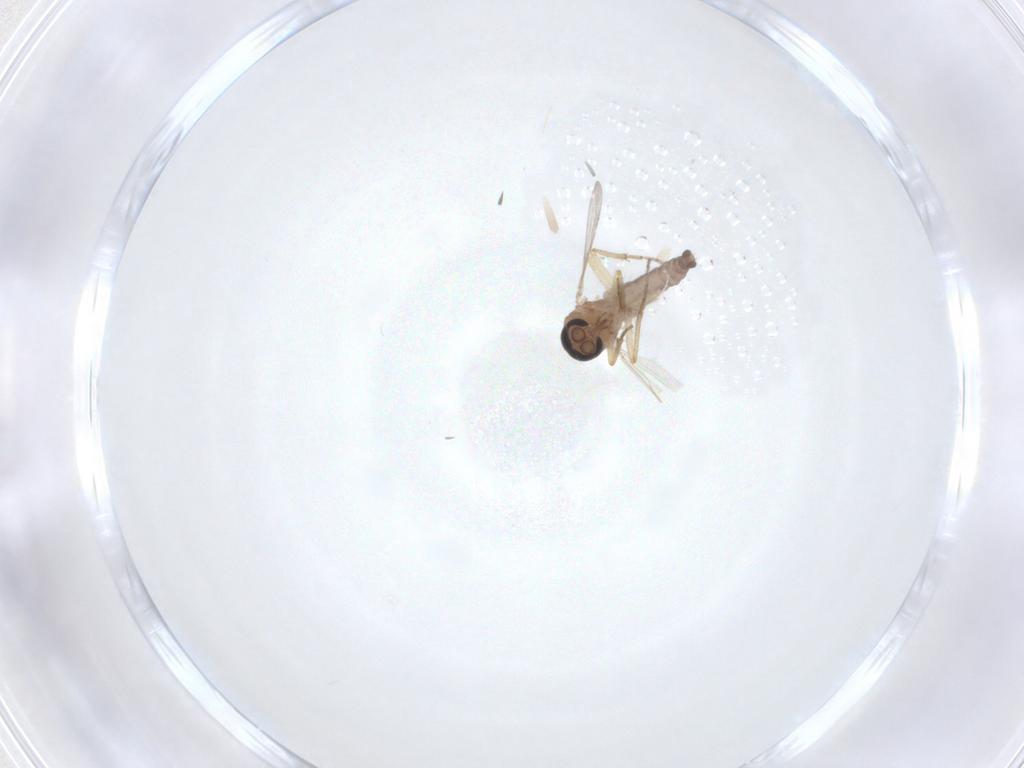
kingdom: Animalia
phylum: Arthropoda
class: Insecta
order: Diptera
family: Ceratopogonidae
